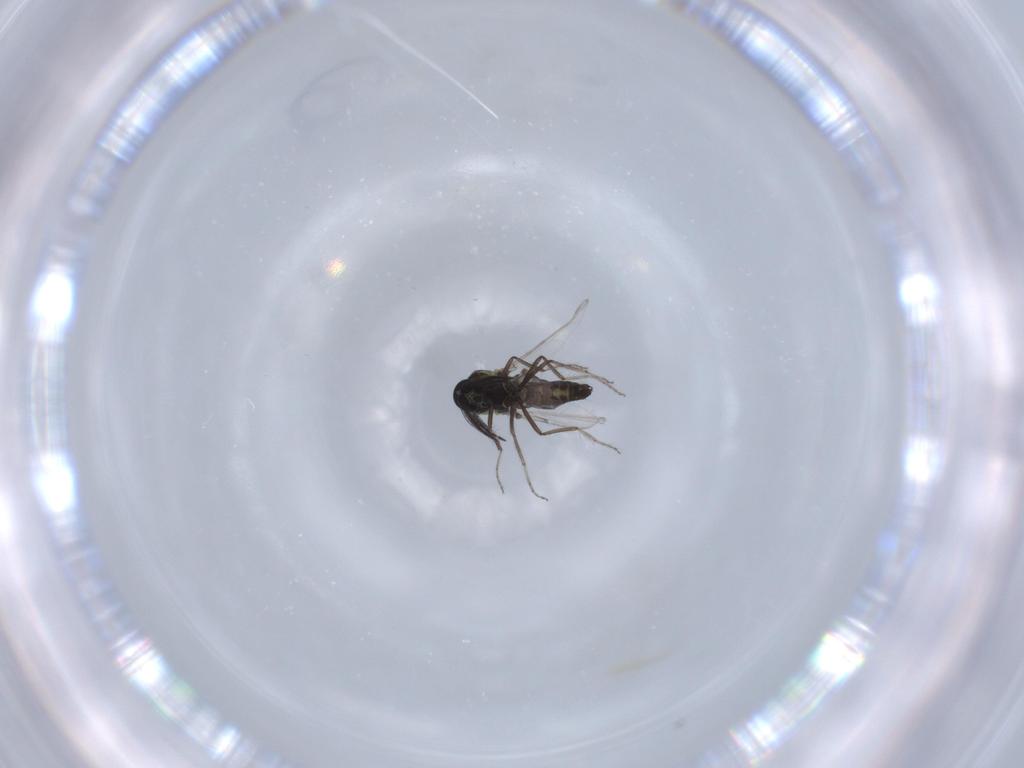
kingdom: Animalia
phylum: Arthropoda
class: Insecta
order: Diptera
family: Ceratopogonidae
